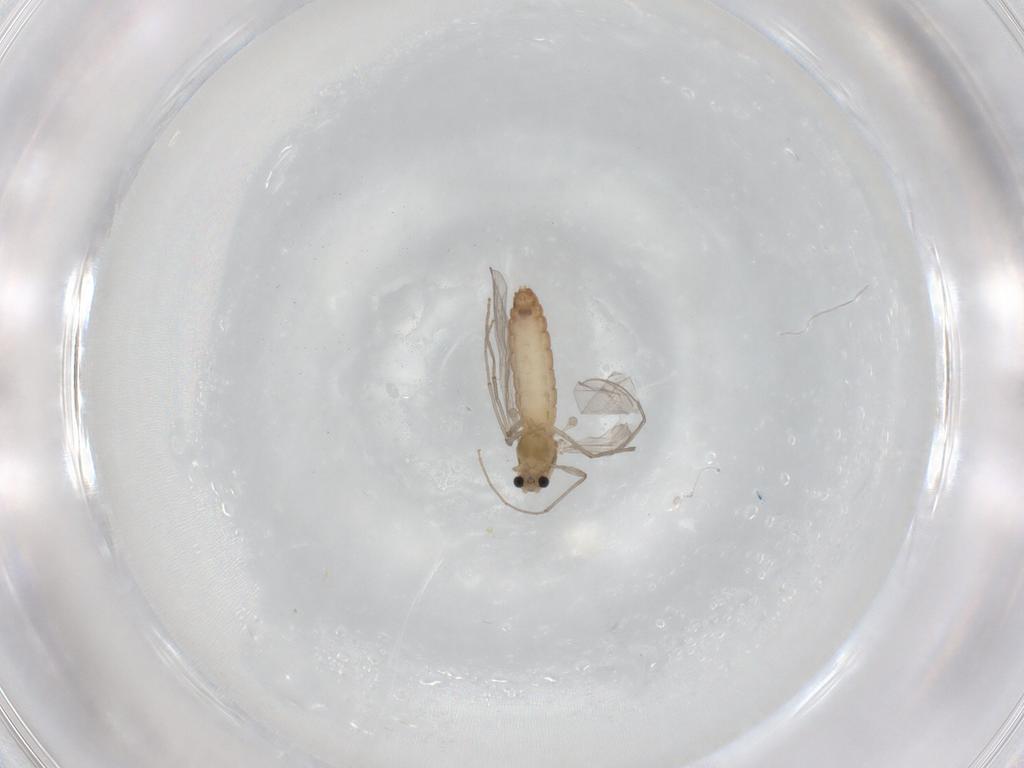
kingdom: Animalia
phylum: Arthropoda
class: Insecta
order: Diptera
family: Chironomidae
